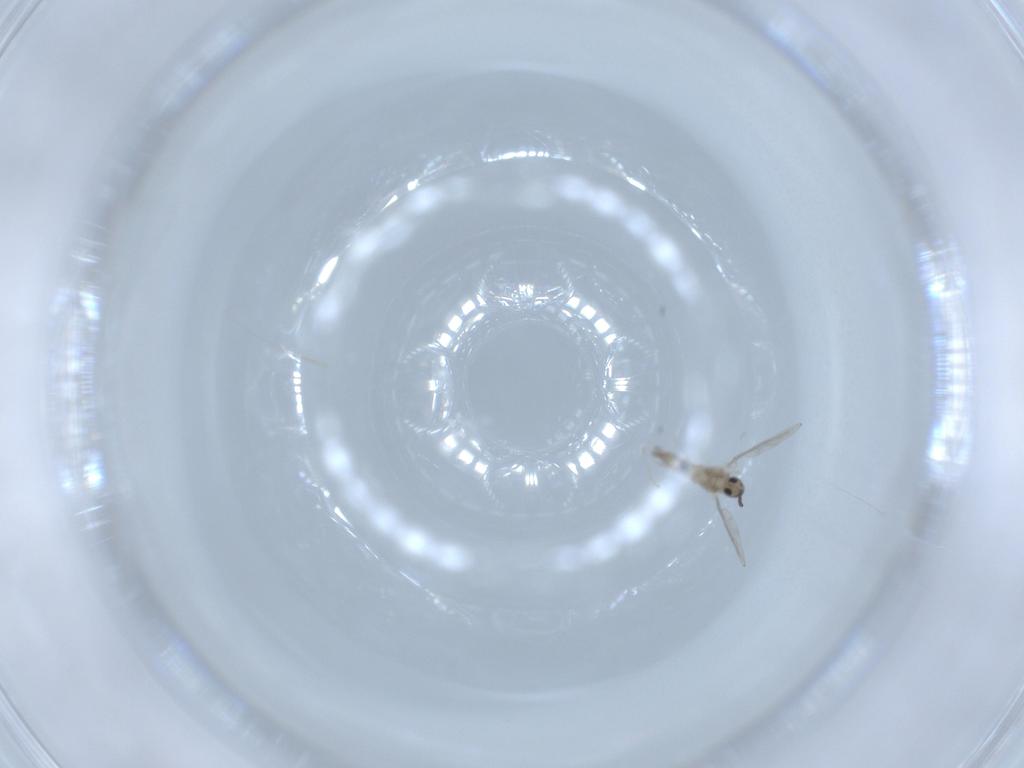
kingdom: Animalia
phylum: Arthropoda
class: Insecta
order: Diptera
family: Cecidomyiidae
